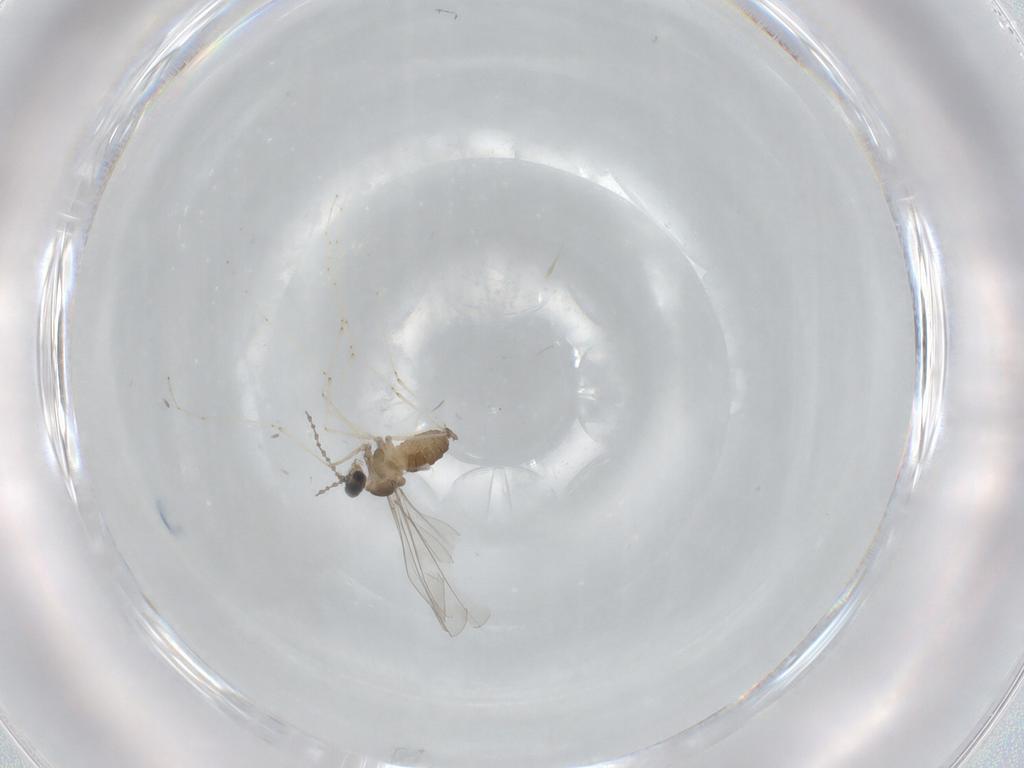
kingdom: Animalia
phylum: Arthropoda
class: Insecta
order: Diptera
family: Cecidomyiidae
